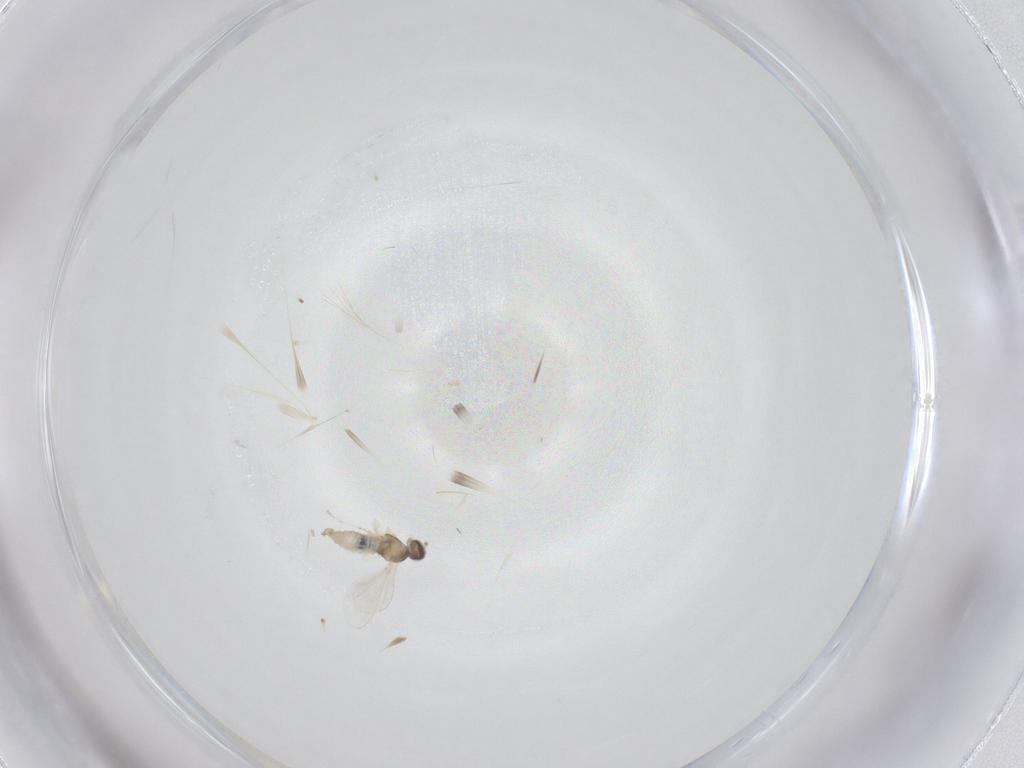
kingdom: Animalia
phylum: Arthropoda
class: Insecta
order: Diptera
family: Cecidomyiidae
